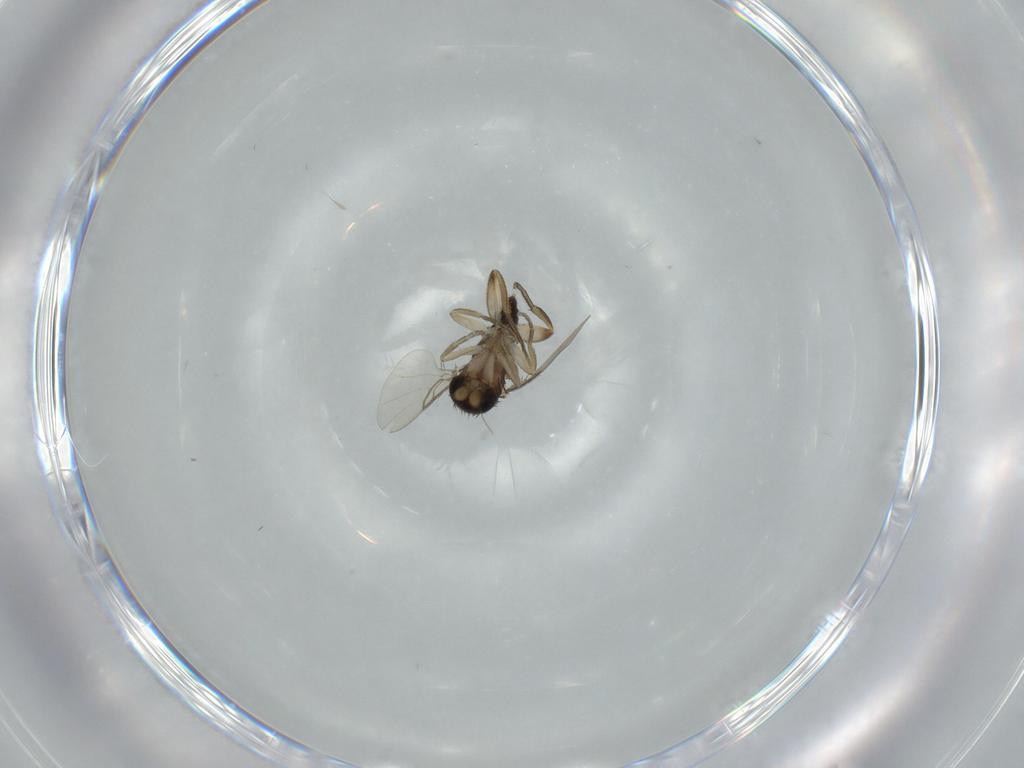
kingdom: Animalia
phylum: Arthropoda
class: Insecta
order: Diptera
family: Phoridae
